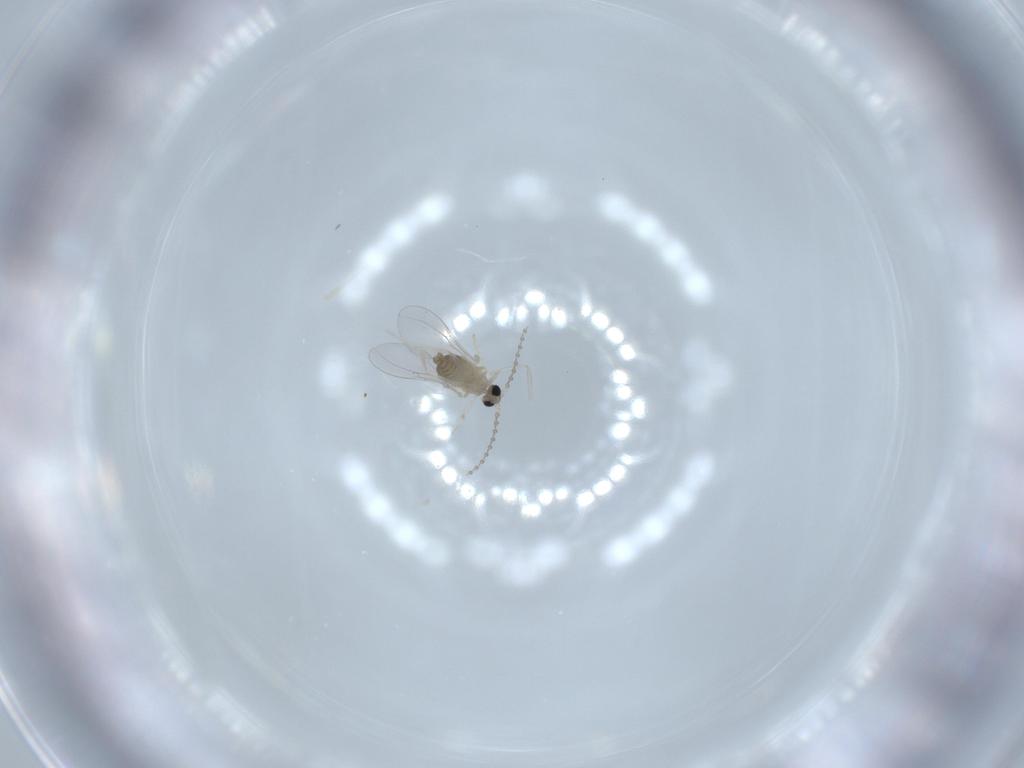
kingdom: Animalia
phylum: Arthropoda
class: Insecta
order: Diptera
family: Cecidomyiidae
